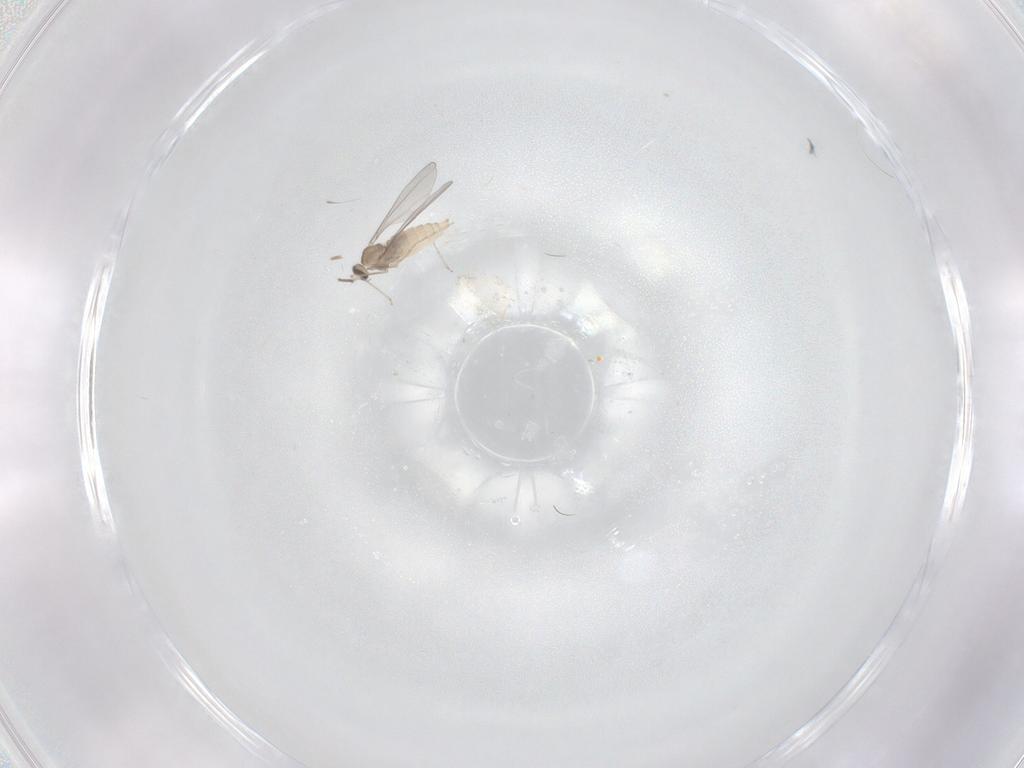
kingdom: Animalia
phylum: Arthropoda
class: Insecta
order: Diptera
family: Cecidomyiidae
